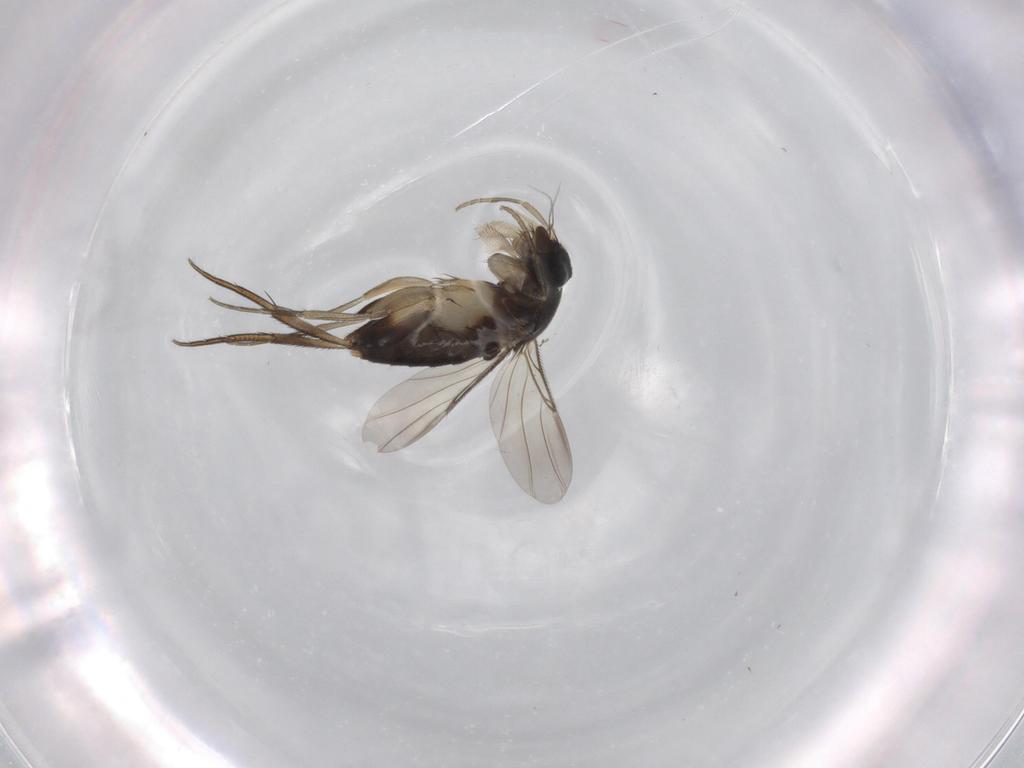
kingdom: Animalia
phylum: Arthropoda
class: Insecta
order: Diptera
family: Phoridae
